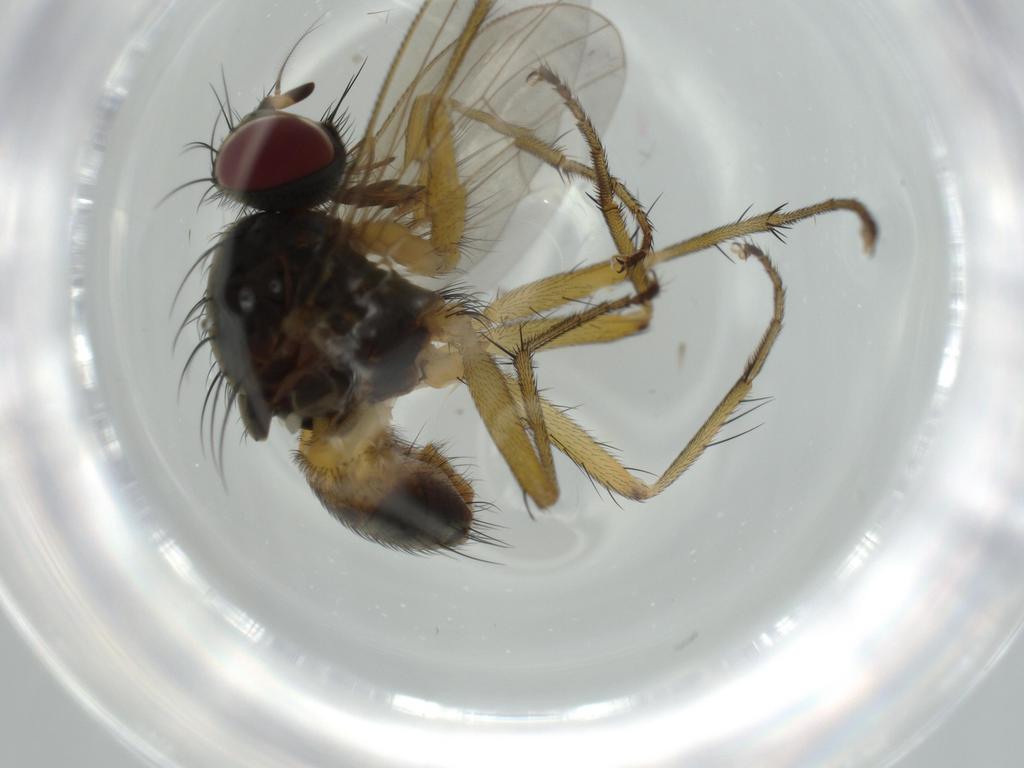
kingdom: Animalia
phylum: Arthropoda
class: Insecta
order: Diptera
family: Muscidae
